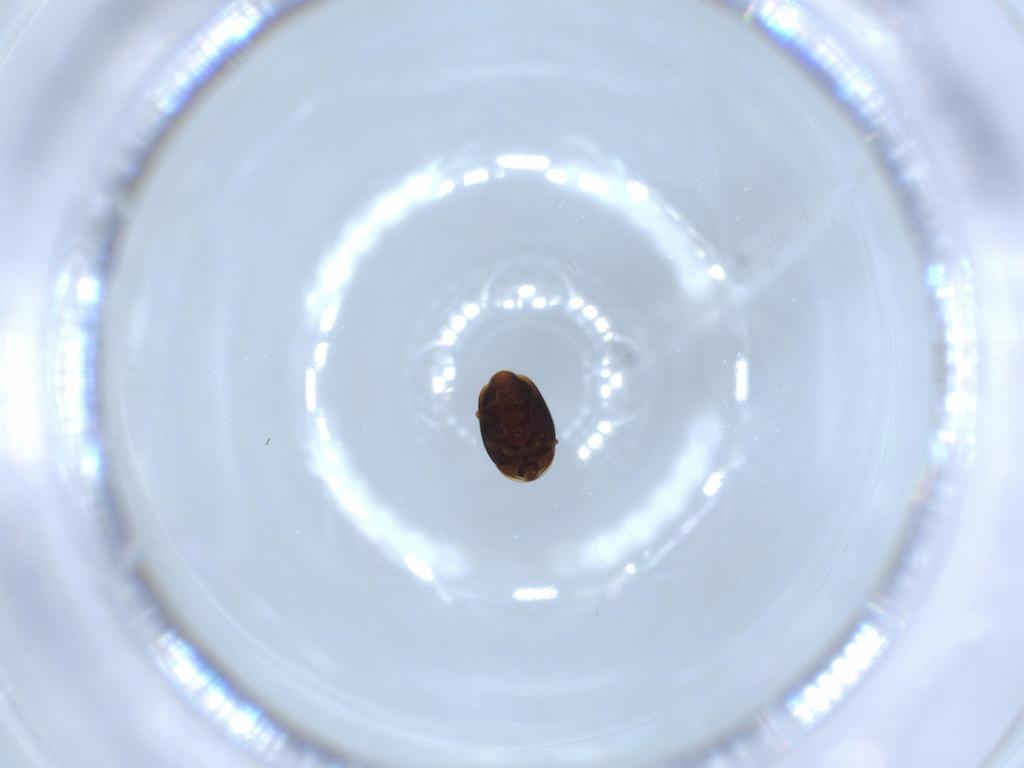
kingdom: Animalia
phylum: Arthropoda
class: Insecta
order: Coleoptera
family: Corylophidae
